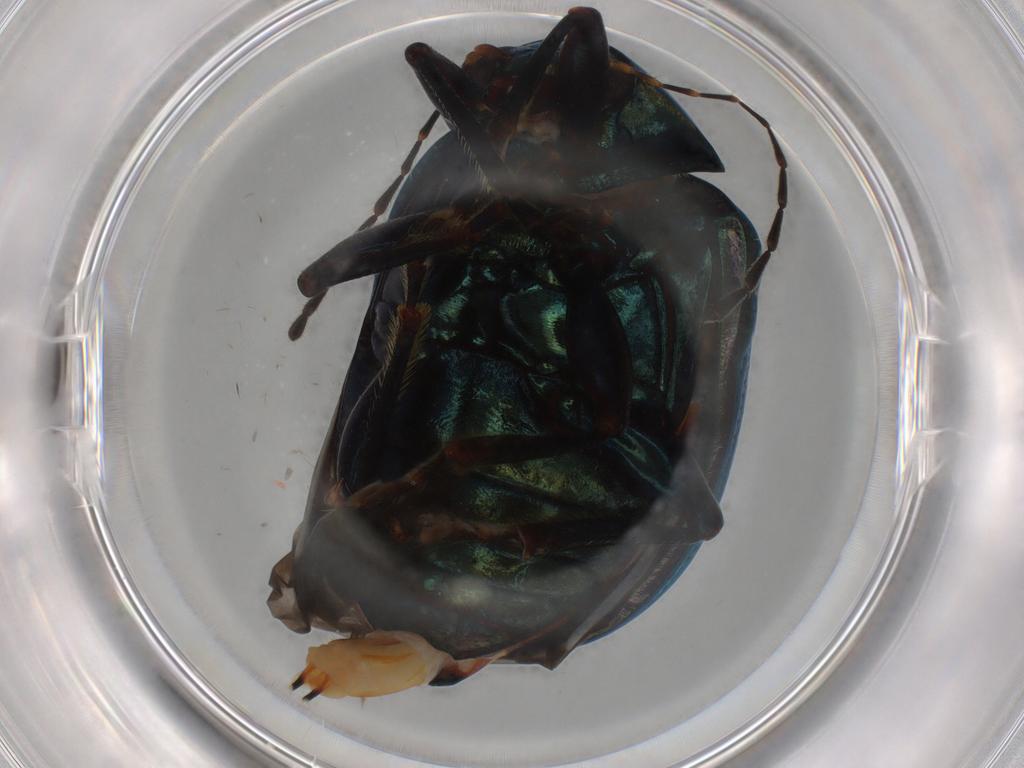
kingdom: Animalia
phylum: Arthropoda
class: Insecta
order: Coleoptera
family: Chrysomelidae
